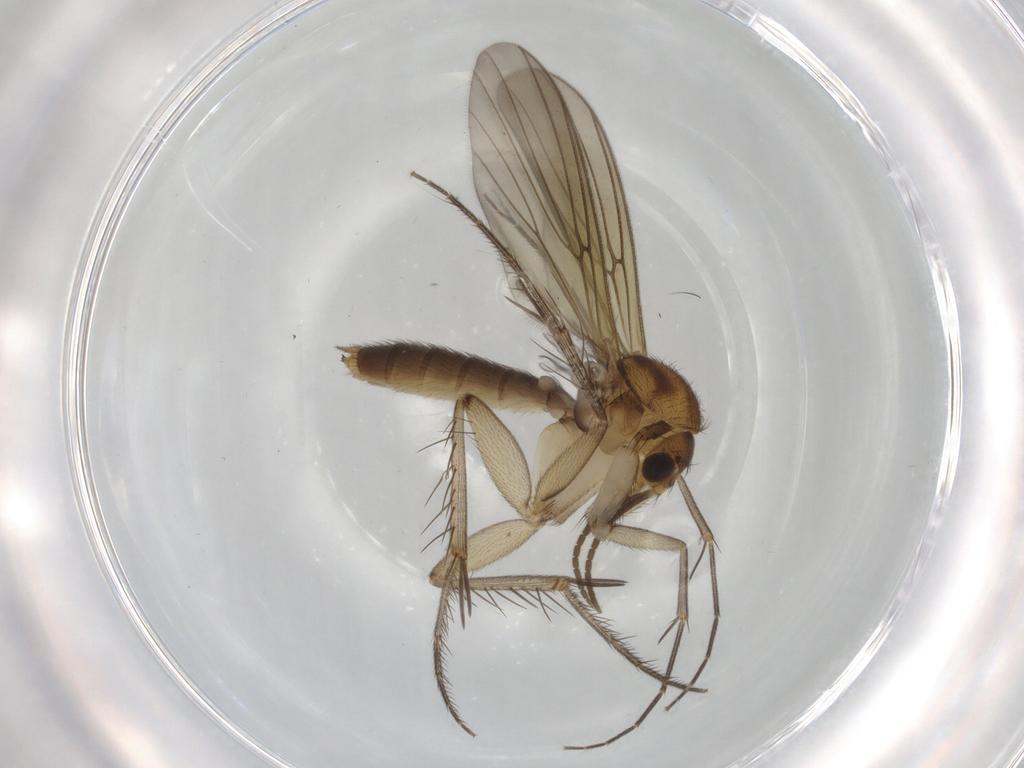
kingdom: Animalia
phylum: Arthropoda
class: Insecta
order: Diptera
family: Mycetophilidae
